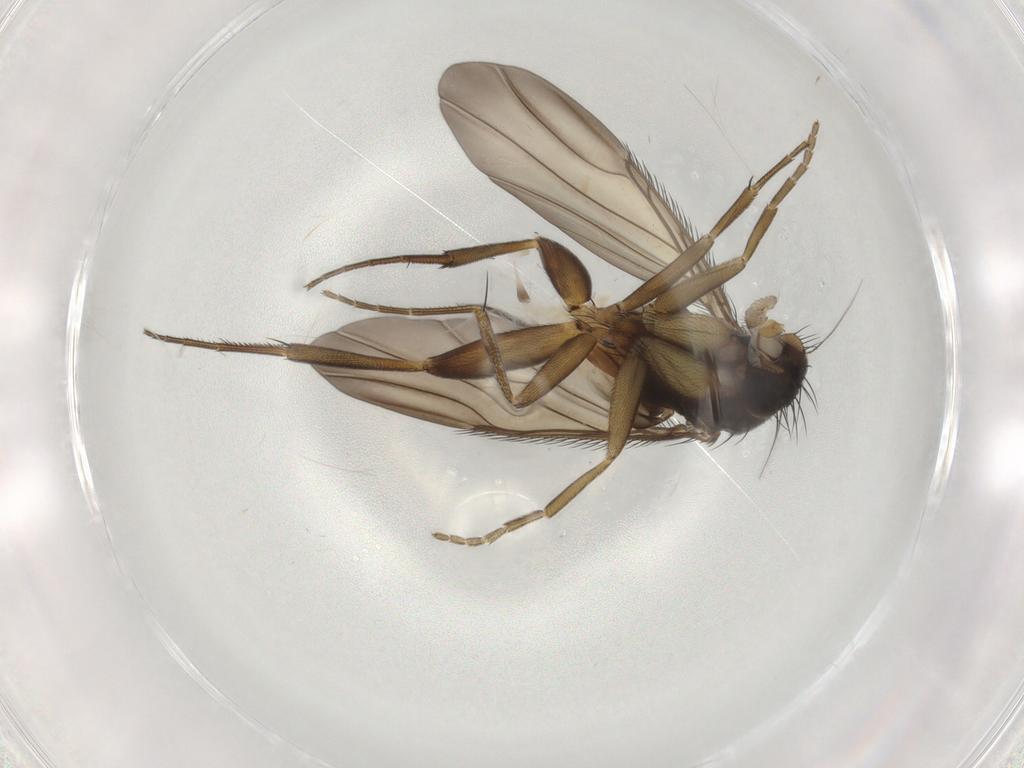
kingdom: Animalia
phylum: Arthropoda
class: Insecta
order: Diptera
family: Phoridae
